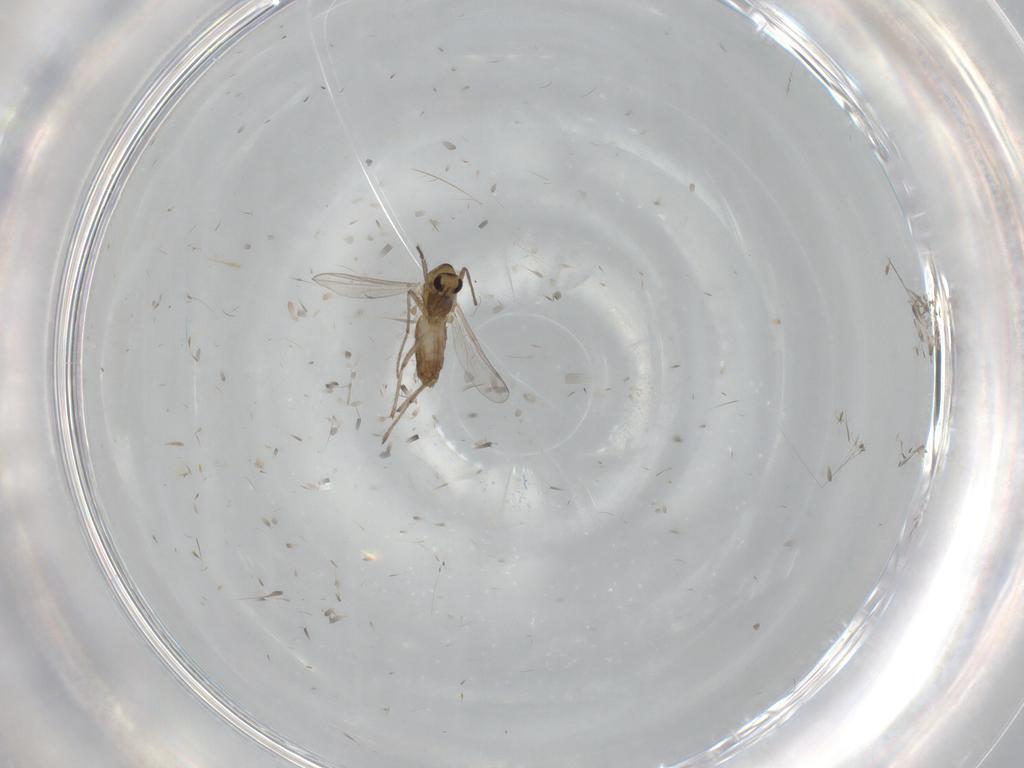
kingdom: Animalia
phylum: Arthropoda
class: Insecta
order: Diptera
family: Chironomidae
